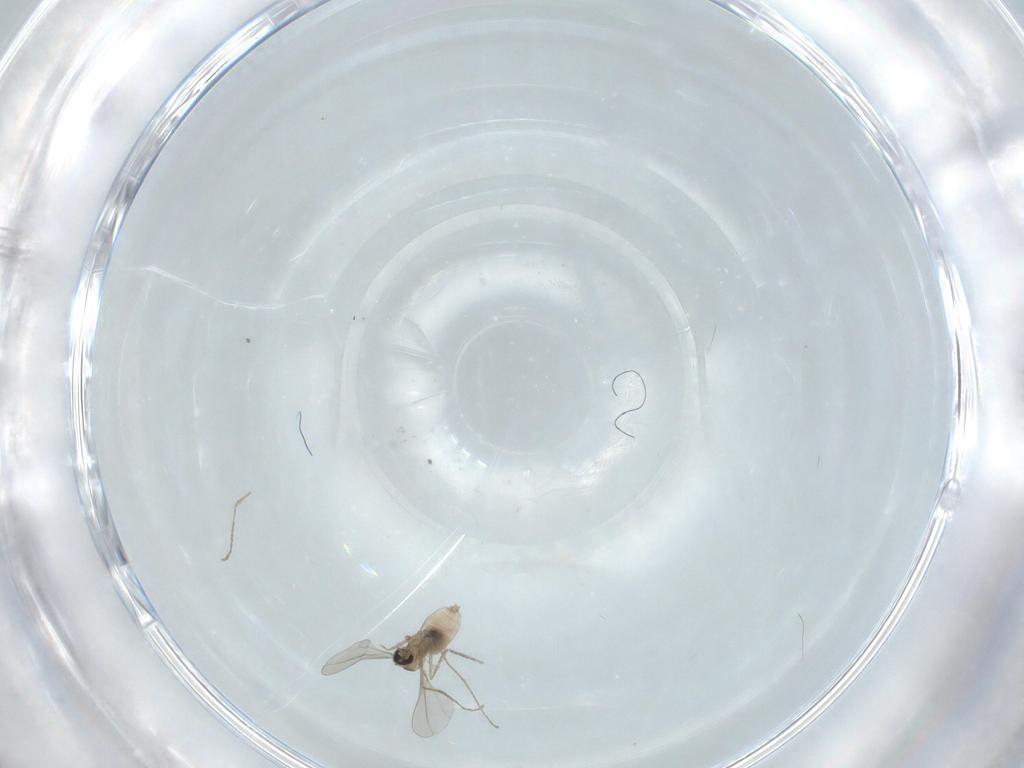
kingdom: Animalia
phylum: Arthropoda
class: Insecta
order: Diptera
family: Cecidomyiidae
